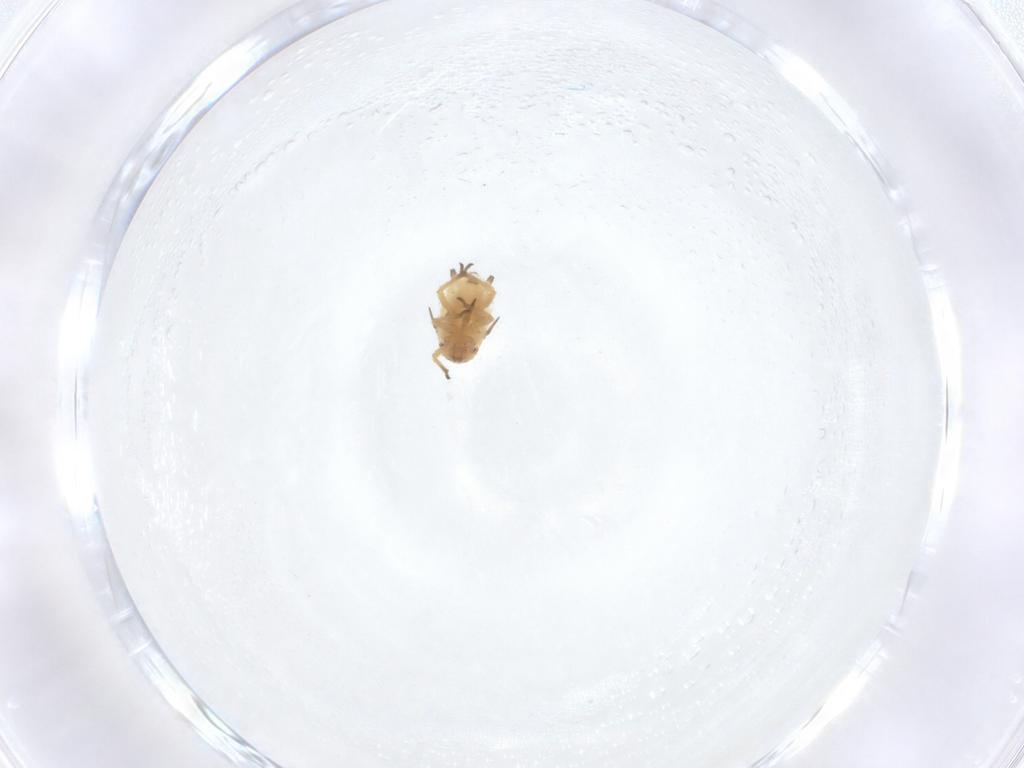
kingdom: Animalia
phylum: Arthropoda
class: Insecta
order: Hemiptera
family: Aphididae
